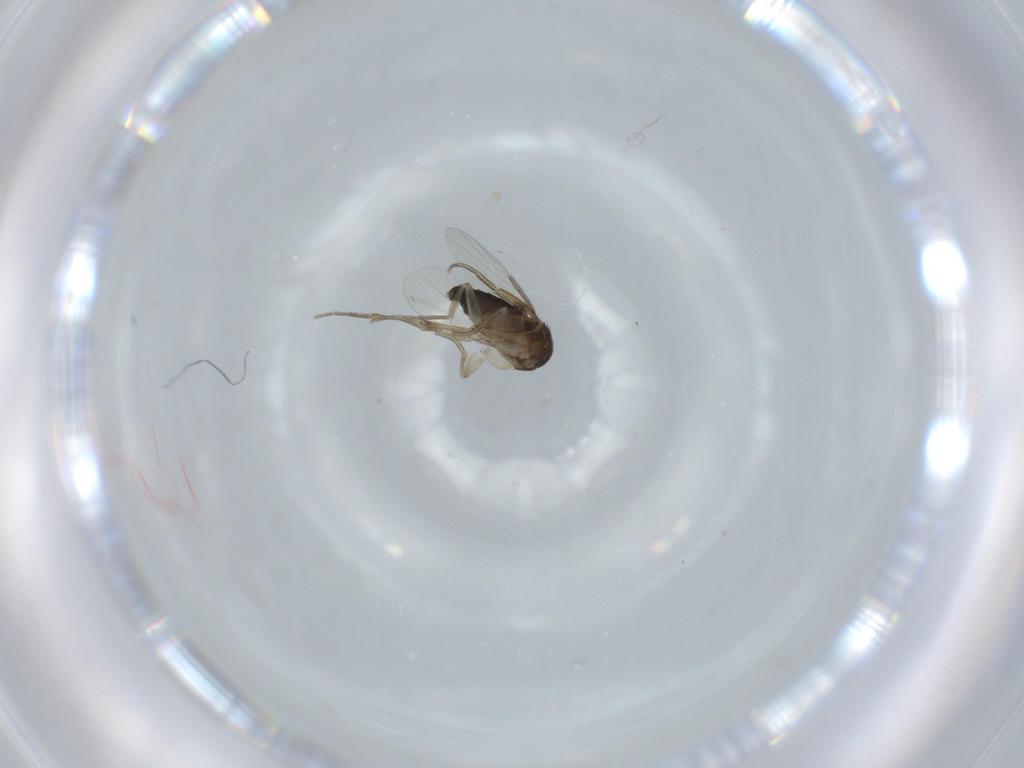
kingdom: Animalia
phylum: Arthropoda
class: Insecta
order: Diptera
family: Phoridae
